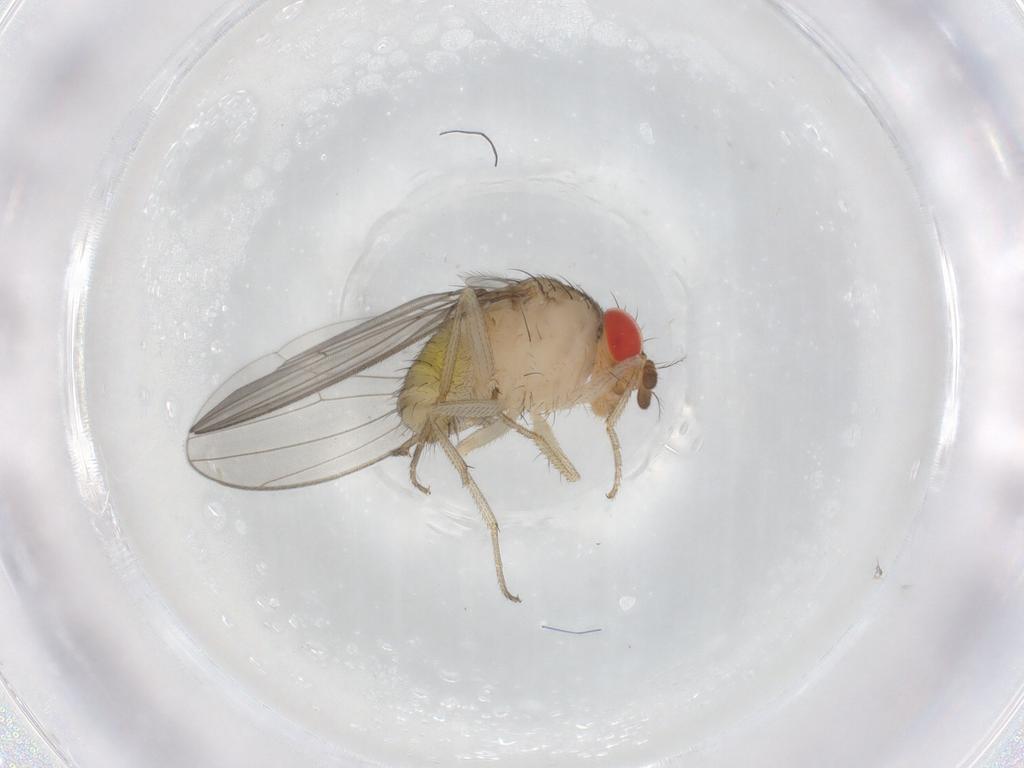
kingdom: Animalia
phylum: Arthropoda
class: Insecta
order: Diptera
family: Drosophilidae
